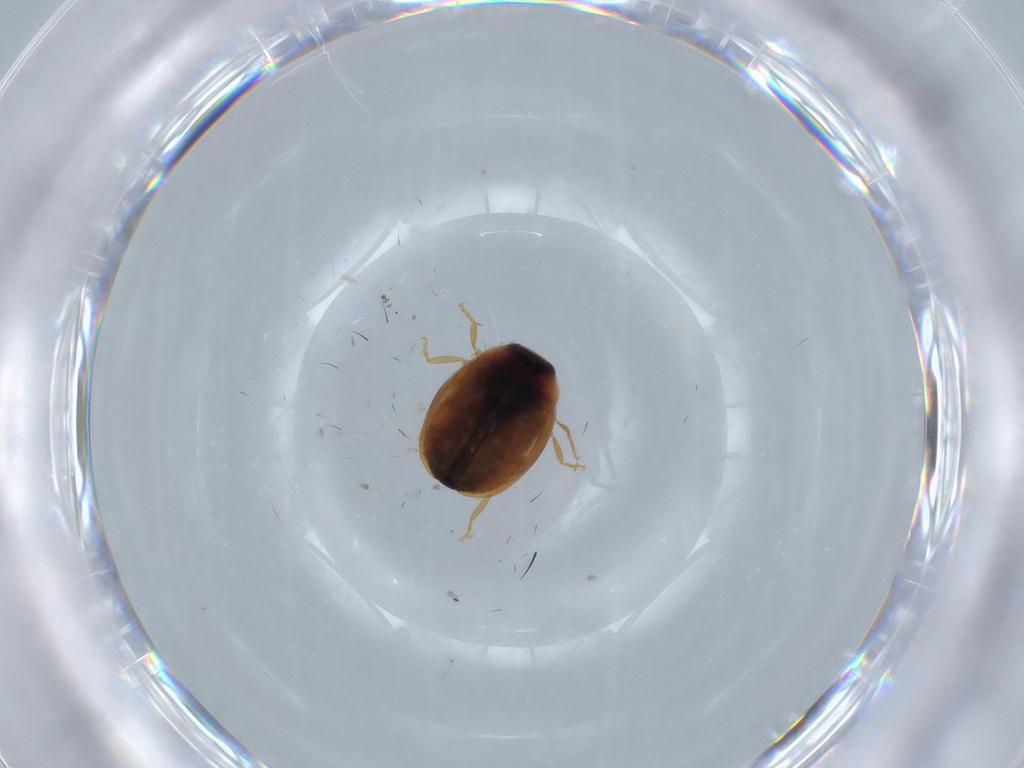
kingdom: Animalia
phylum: Arthropoda
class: Insecta
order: Coleoptera
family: Coccinellidae
